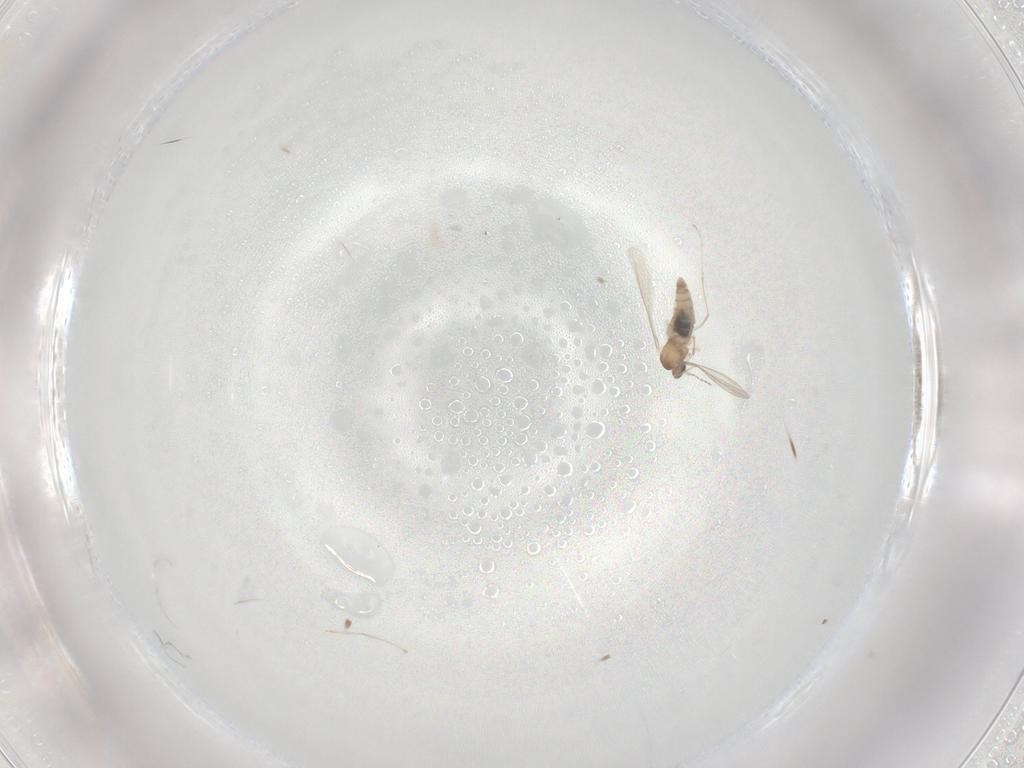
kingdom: Animalia
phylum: Arthropoda
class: Insecta
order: Diptera
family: Cecidomyiidae
